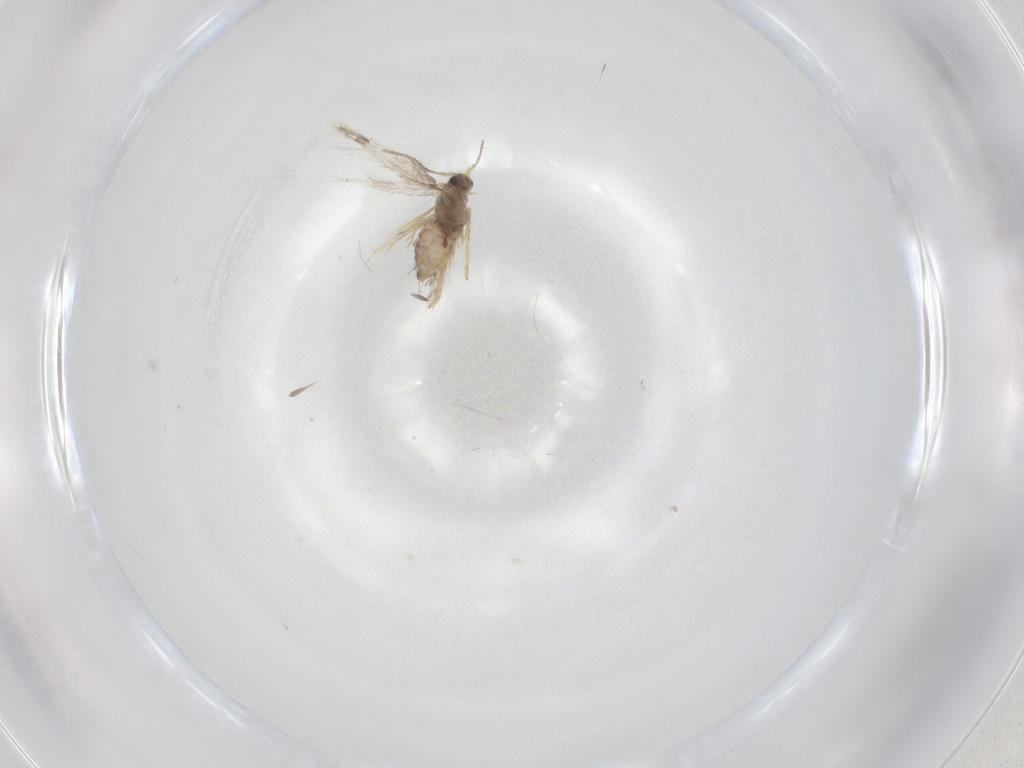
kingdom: Animalia
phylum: Arthropoda
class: Insecta
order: Lepidoptera
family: Nepticulidae
